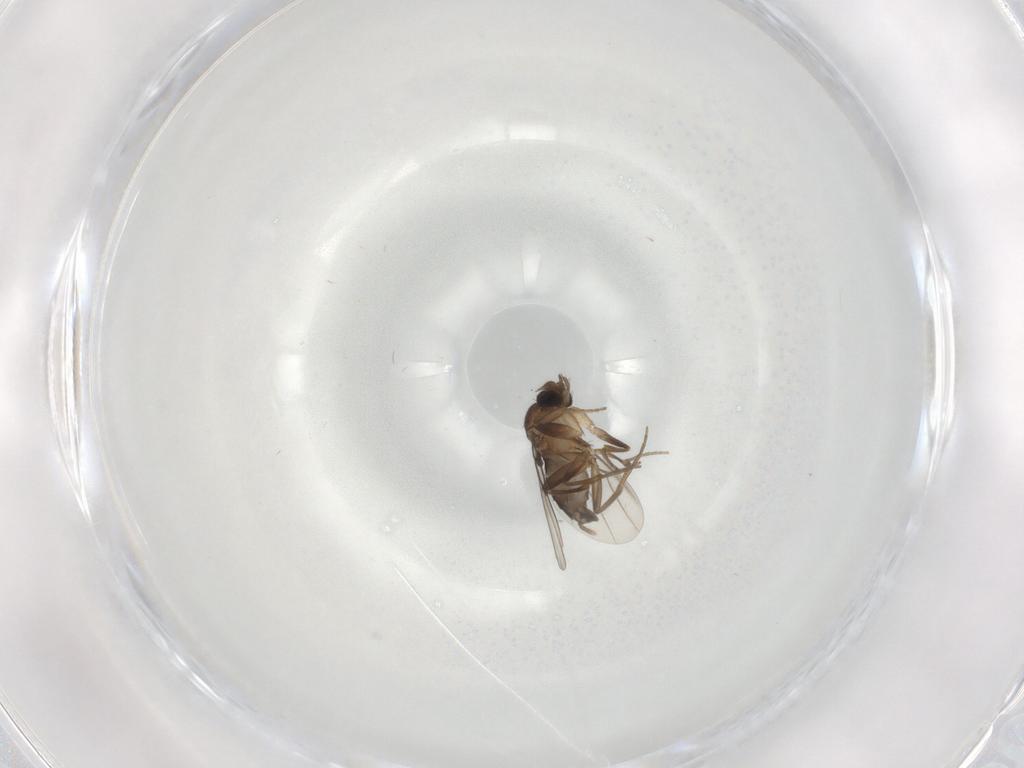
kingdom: Animalia
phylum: Arthropoda
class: Insecta
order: Diptera
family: Phoridae
